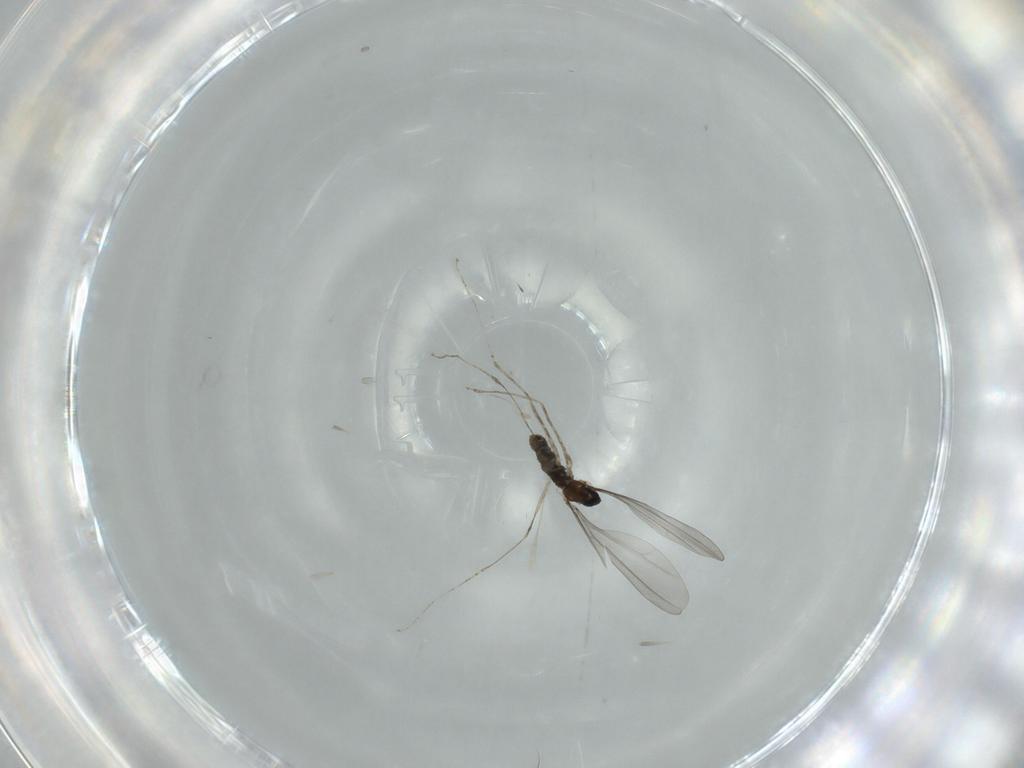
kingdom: Animalia
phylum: Arthropoda
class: Insecta
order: Diptera
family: Cecidomyiidae
